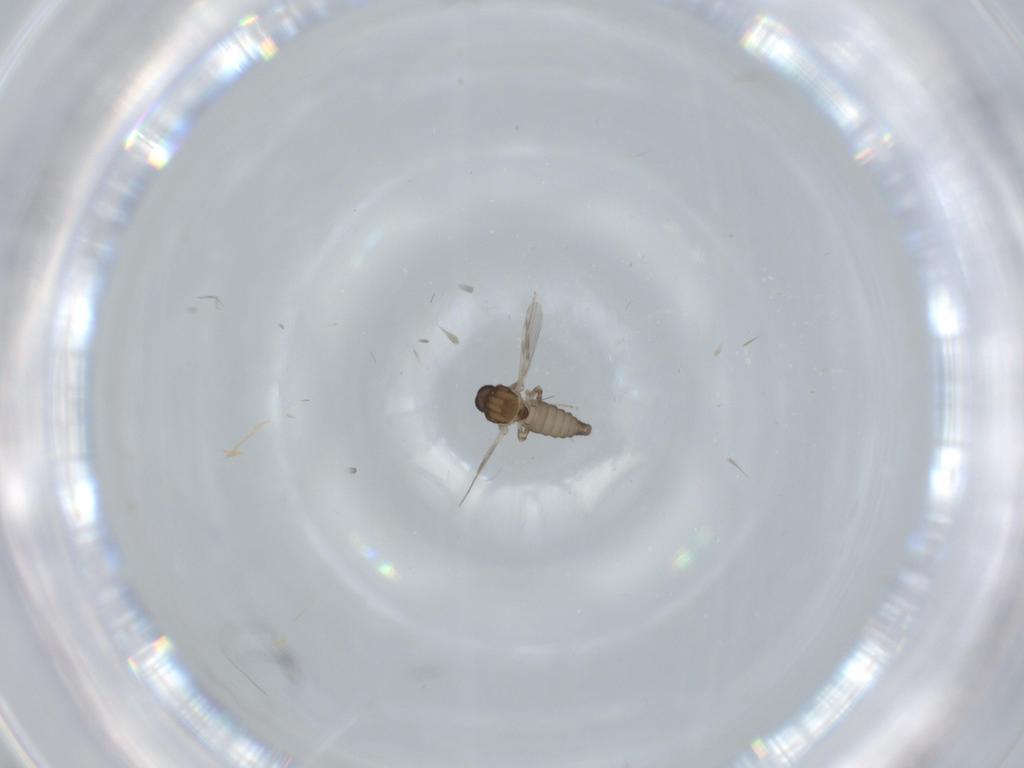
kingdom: Animalia
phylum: Arthropoda
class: Insecta
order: Diptera
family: Ceratopogonidae
